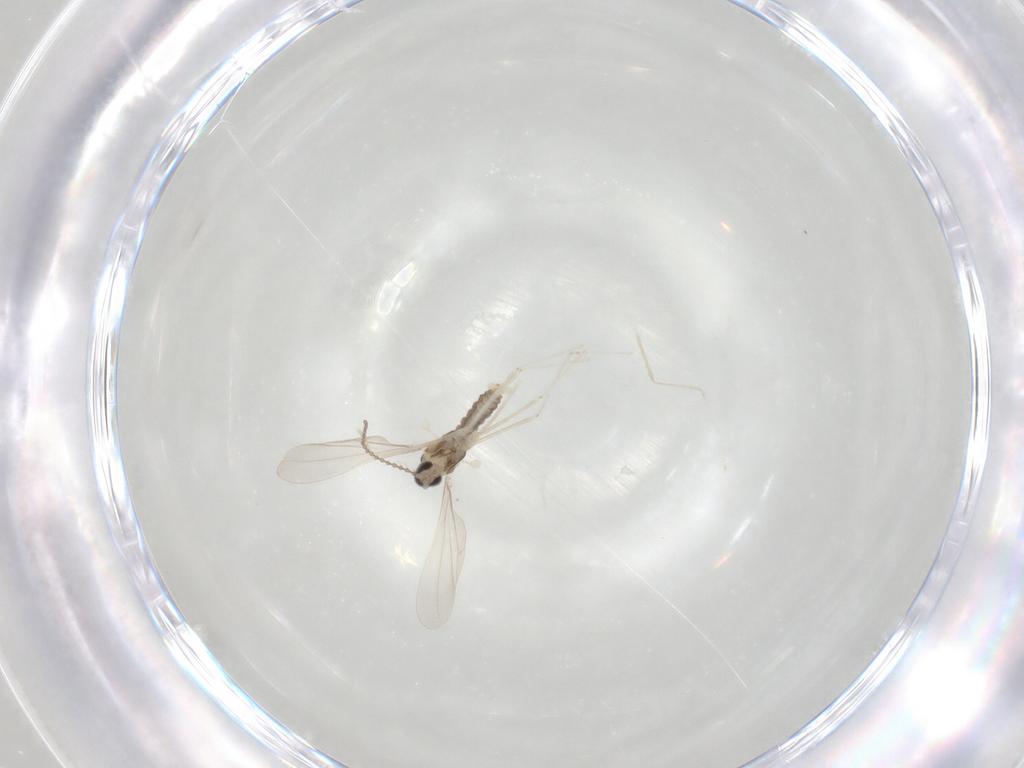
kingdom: Animalia
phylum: Arthropoda
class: Insecta
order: Diptera
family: Cecidomyiidae
